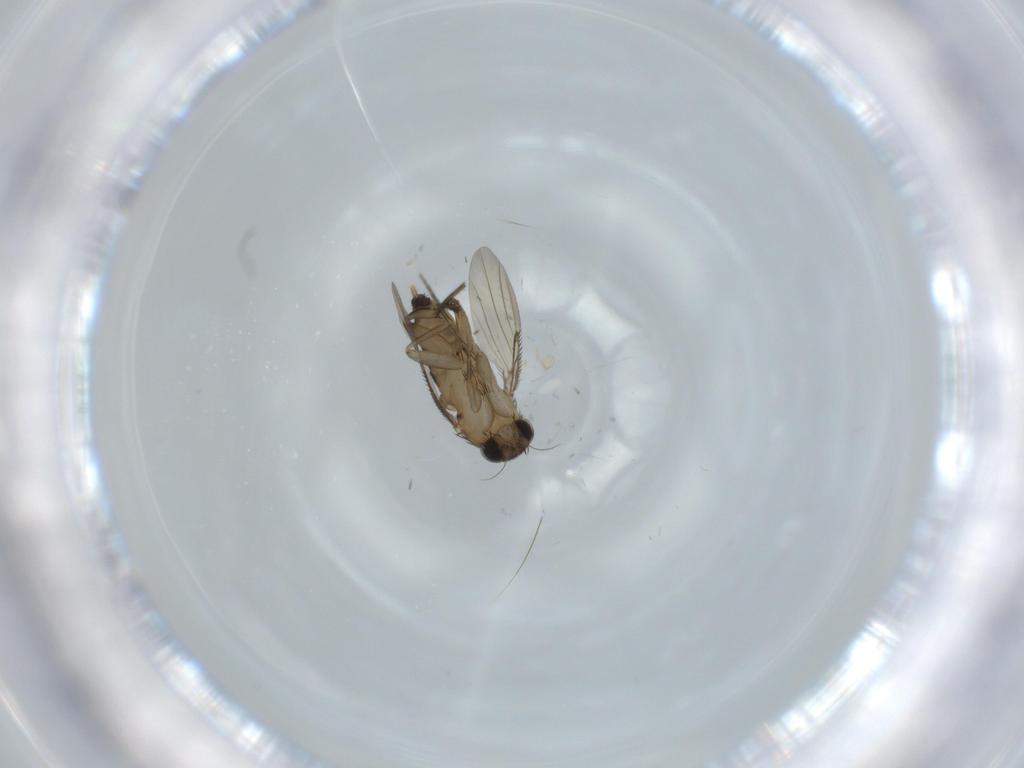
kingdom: Animalia
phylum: Arthropoda
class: Insecta
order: Diptera
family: Phoridae
